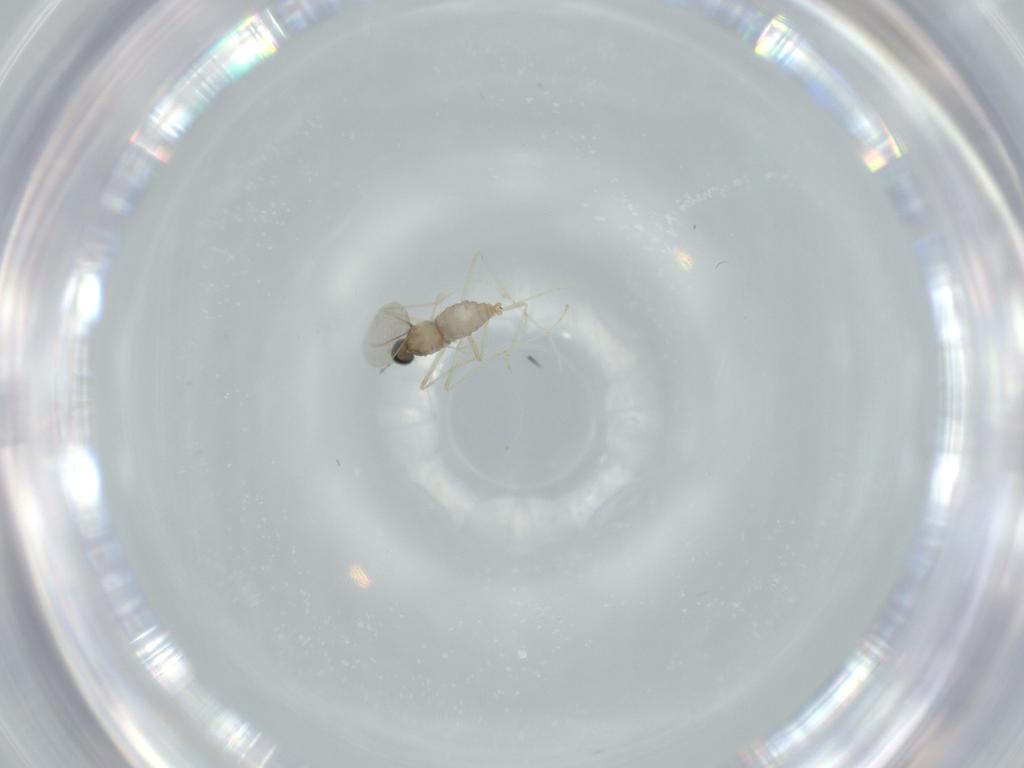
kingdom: Animalia
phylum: Arthropoda
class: Insecta
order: Diptera
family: Cecidomyiidae
